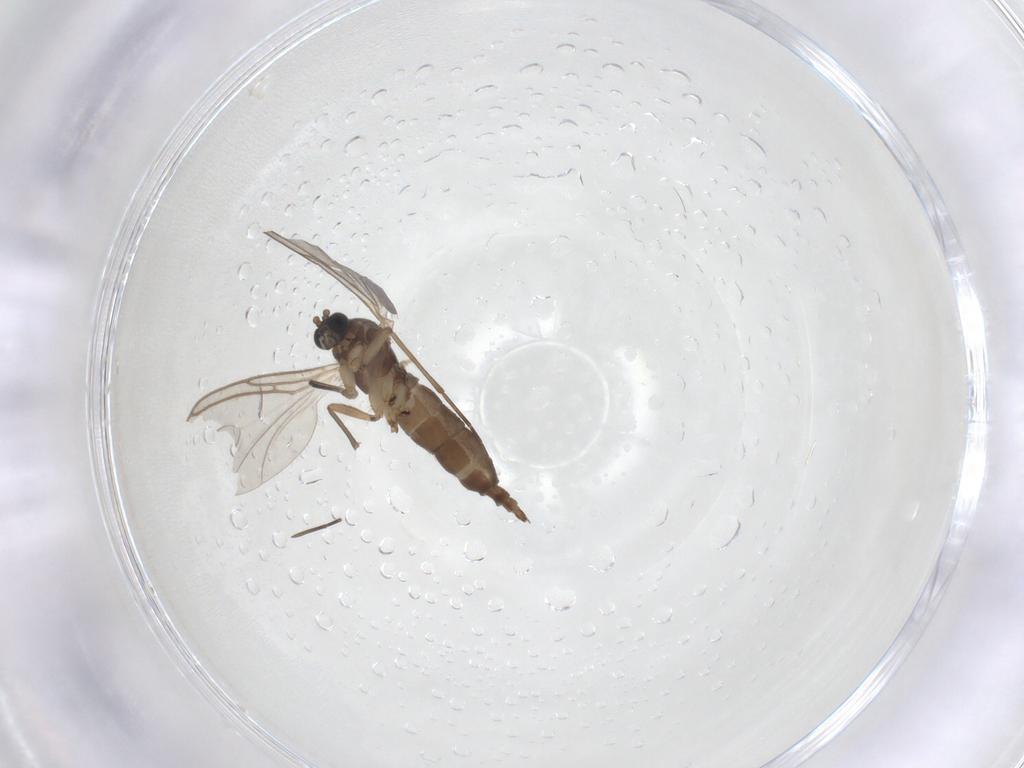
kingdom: Animalia
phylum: Arthropoda
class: Insecta
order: Diptera
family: Sciaridae
